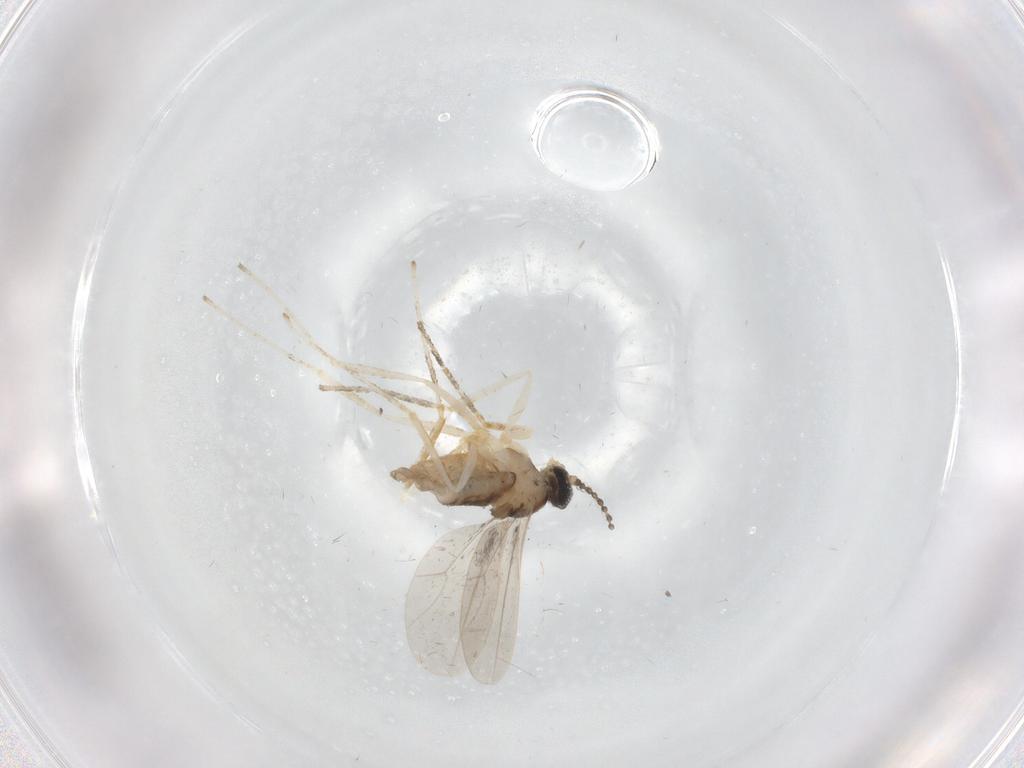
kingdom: Animalia
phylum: Arthropoda
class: Insecta
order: Diptera
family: Phoridae
